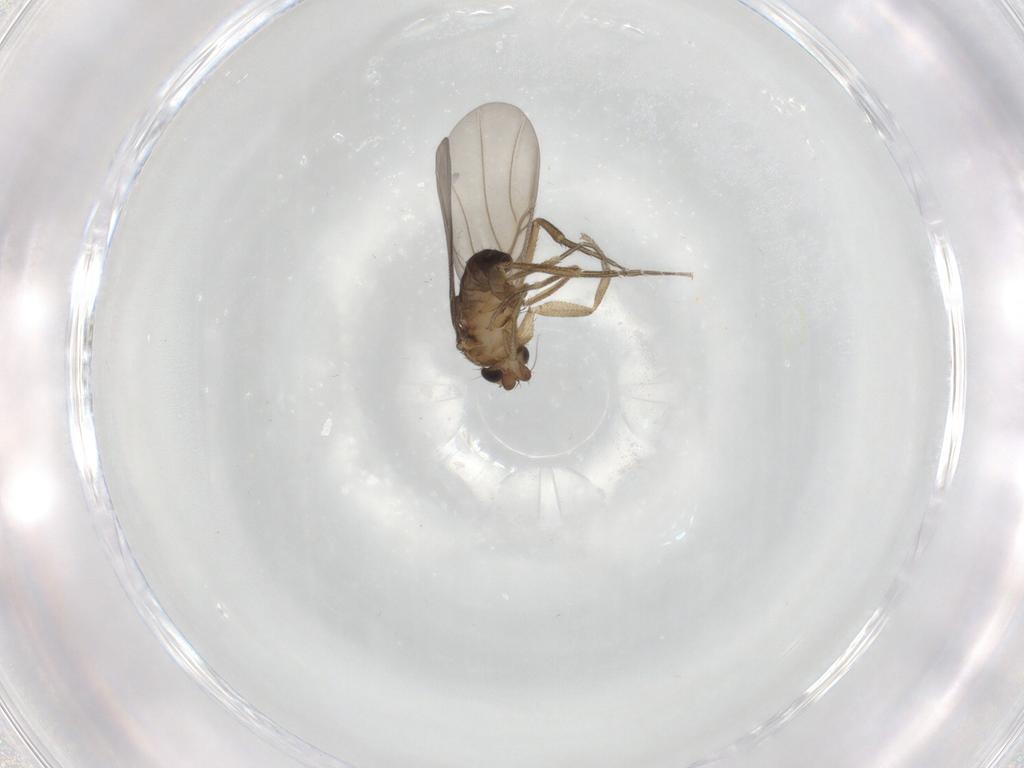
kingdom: Animalia
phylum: Arthropoda
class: Insecta
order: Diptera
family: Phoridae
